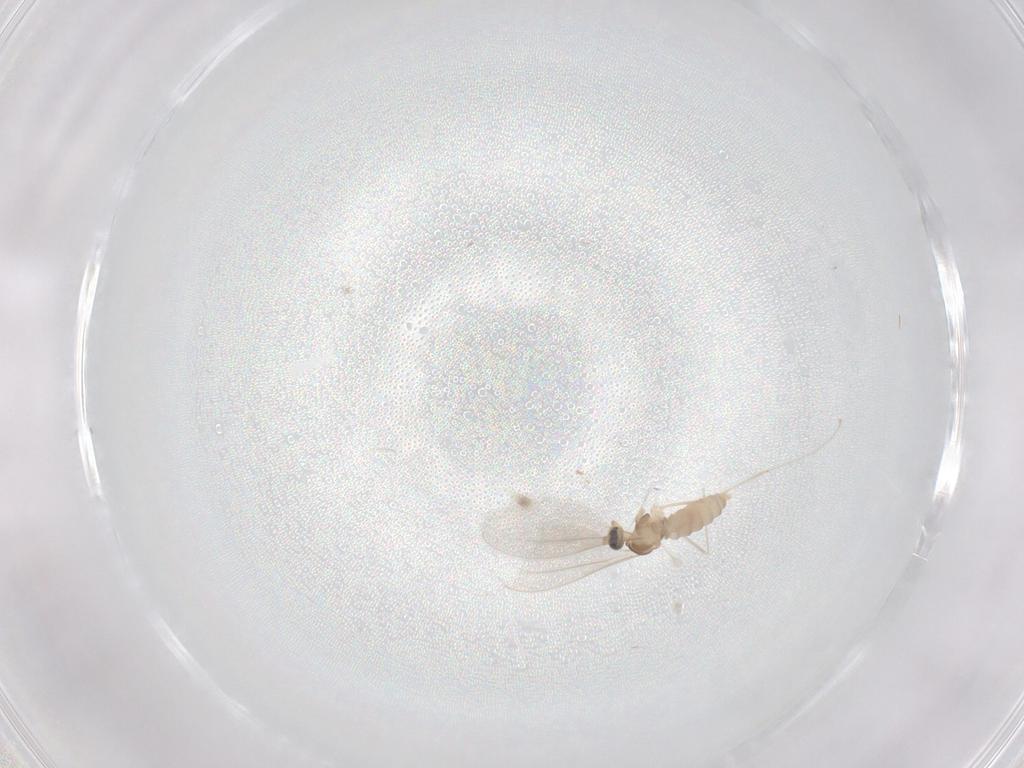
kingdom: Animalia
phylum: Arthropoda
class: Insecta
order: Diptera
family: Cecidomyiidae
